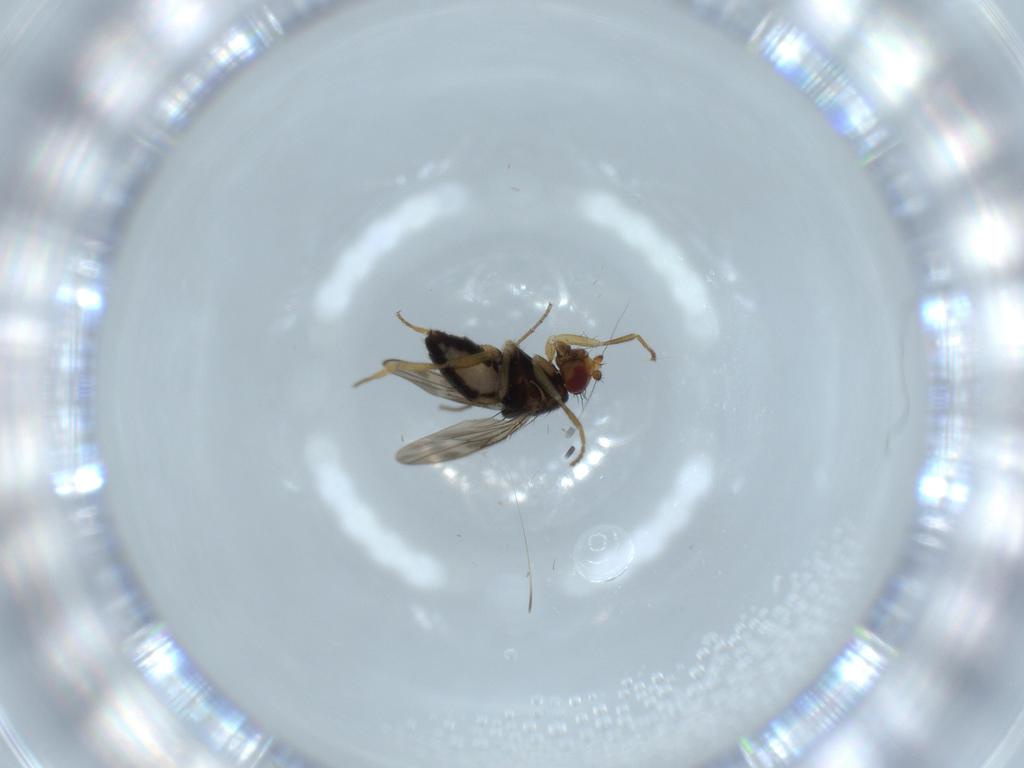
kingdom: Animalia
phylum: Arthropoda
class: Insecta
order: Diptera
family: Sphaeroceridae
